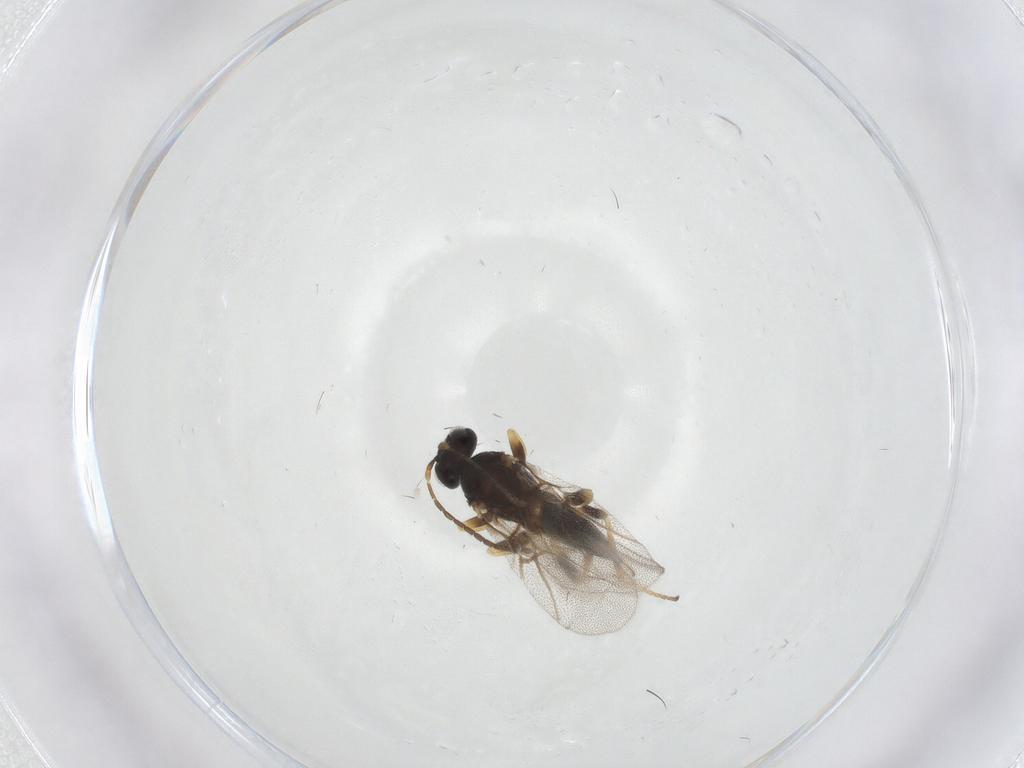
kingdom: Animalia
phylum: Arthropoda
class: Insecta
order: Hymenoptera
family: Cynipidae
